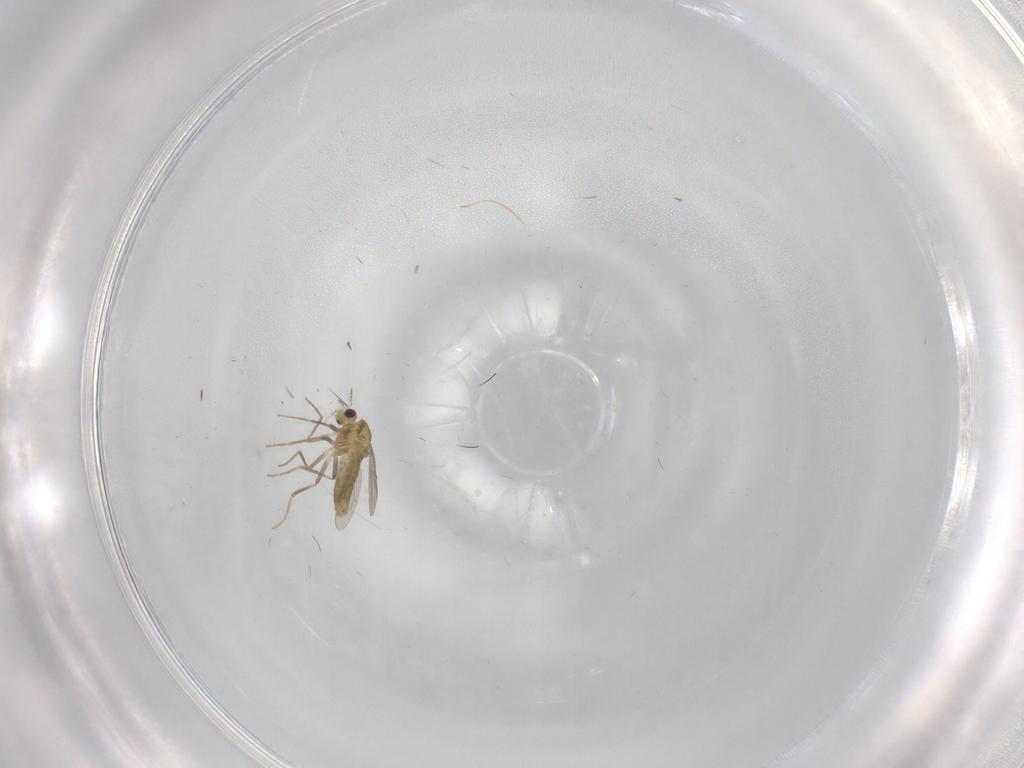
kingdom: Animalia
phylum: Arthropoda
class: Insecta
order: Diptera
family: Chironomidae
